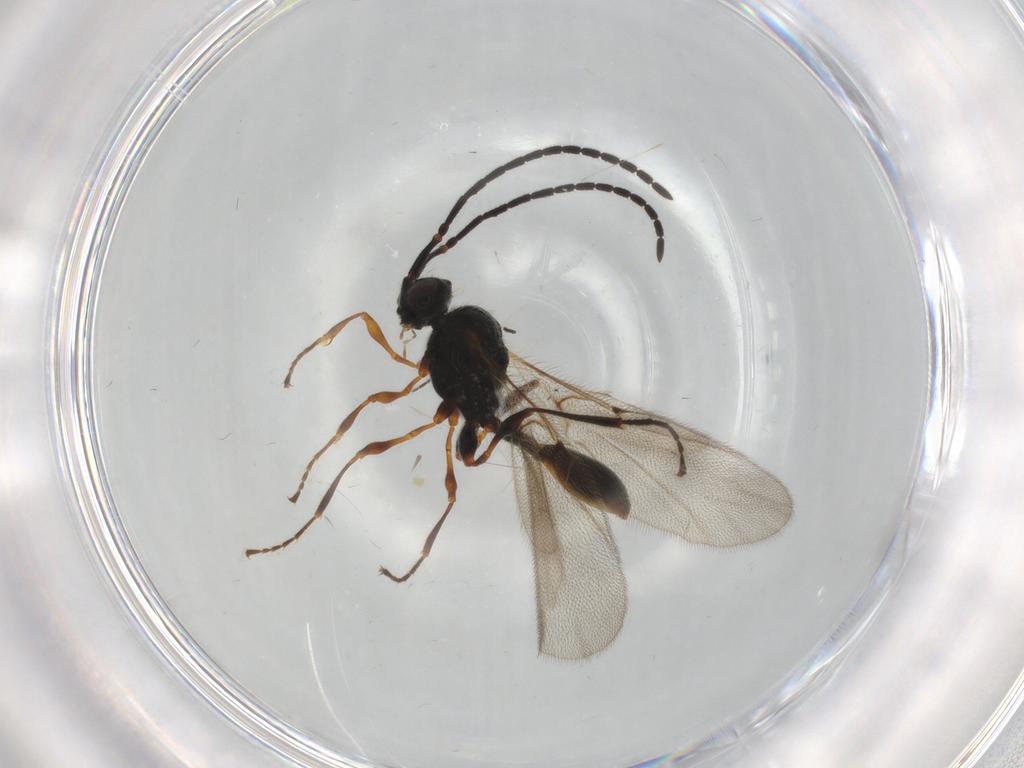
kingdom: Animalia
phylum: Arthropoda
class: Insecta
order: Hymenoptera
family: Diapriidae
